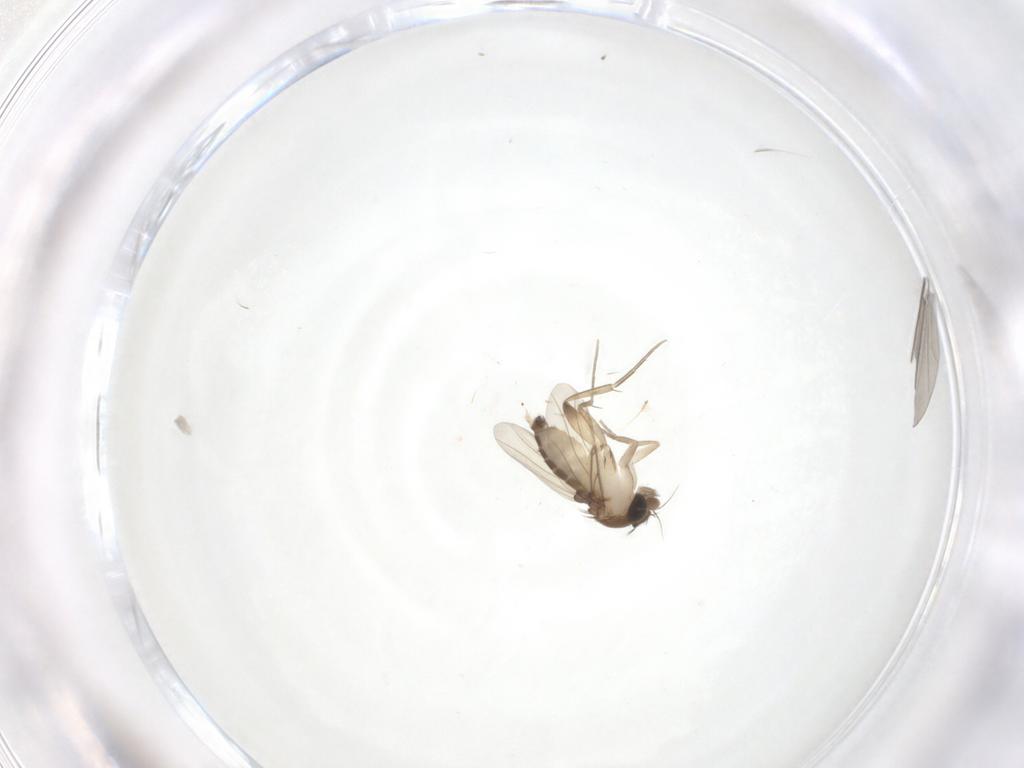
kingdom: Animalia
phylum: Arthropoda
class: Insecta
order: Diptera
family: Phoridae
